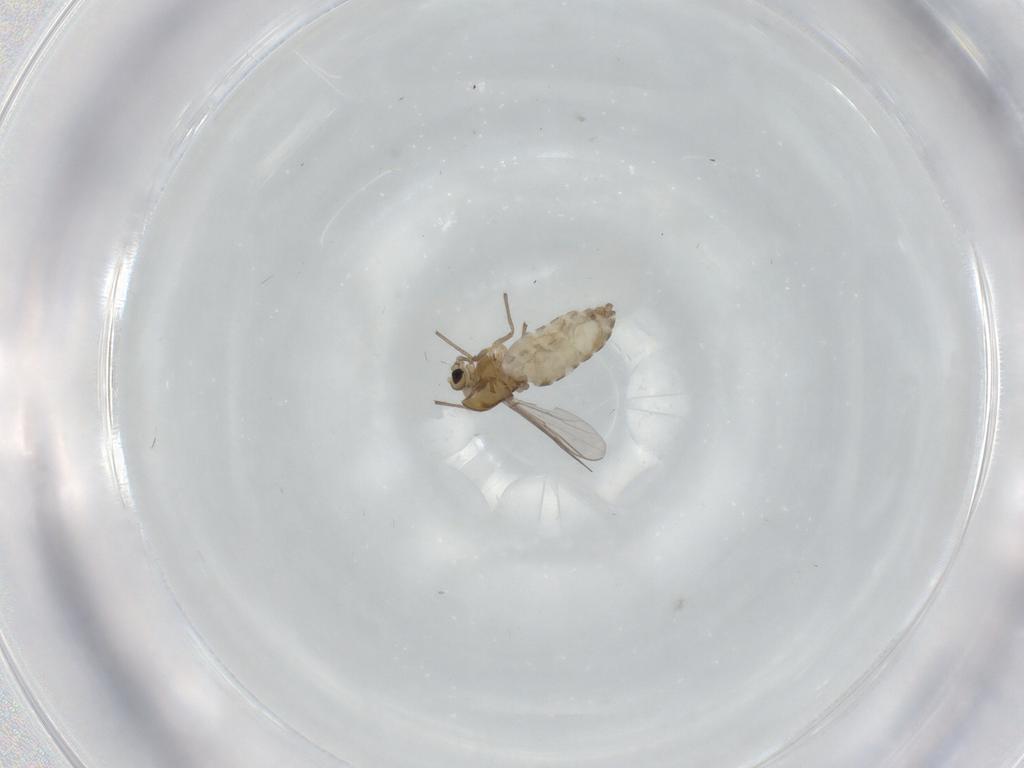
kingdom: Animalia
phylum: Arthropoda
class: Insecta
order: Diptera
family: Chironomidae
